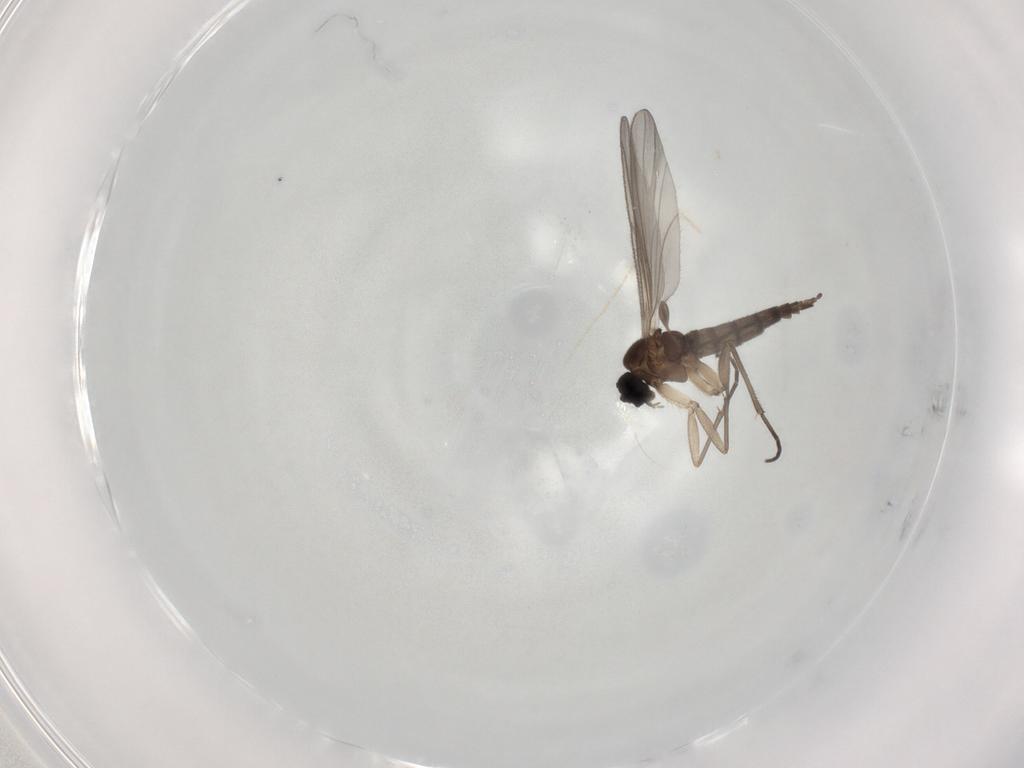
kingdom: Animalia
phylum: Arthropoda
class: Insecta
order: Diptera
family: Sciaridae
